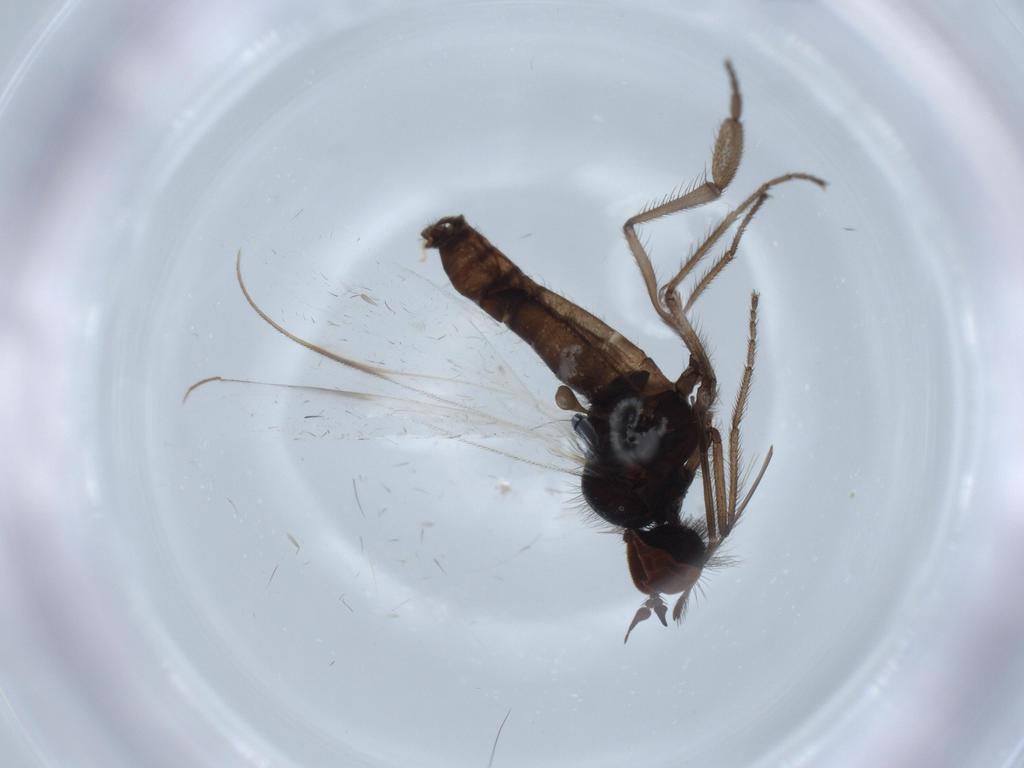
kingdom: Animalia
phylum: Arthropoda
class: Insecta
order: Diptera
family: Empididae
